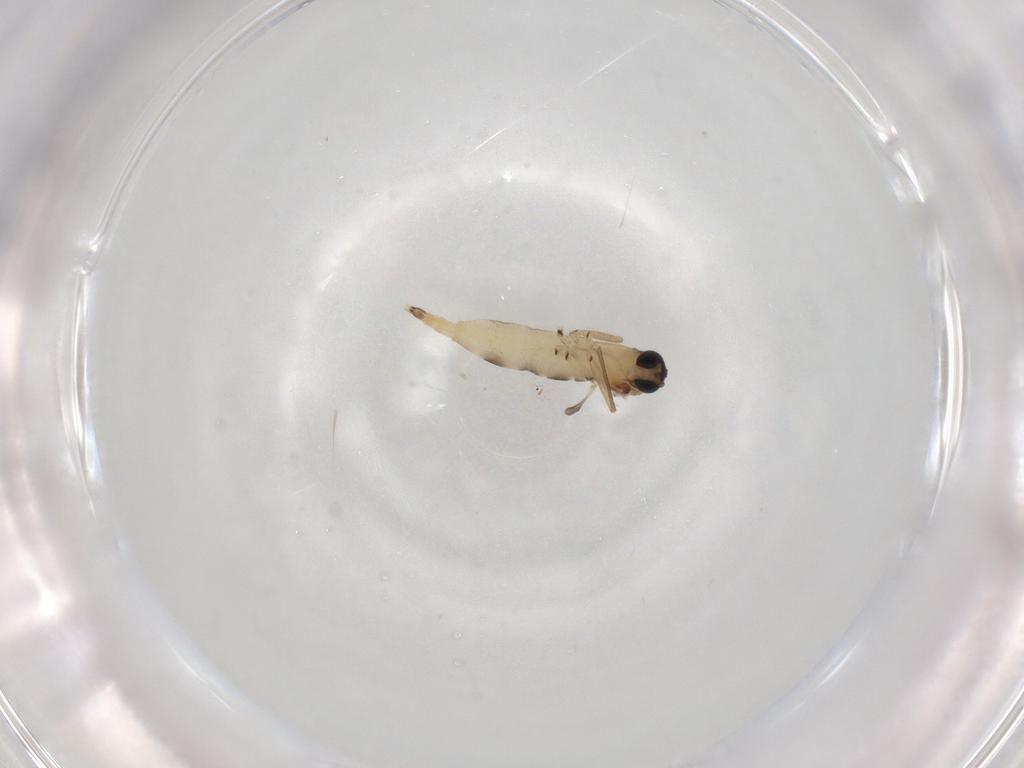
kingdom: Animalia
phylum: Arthropoda
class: Insecta
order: Diptera
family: Sciaridae
